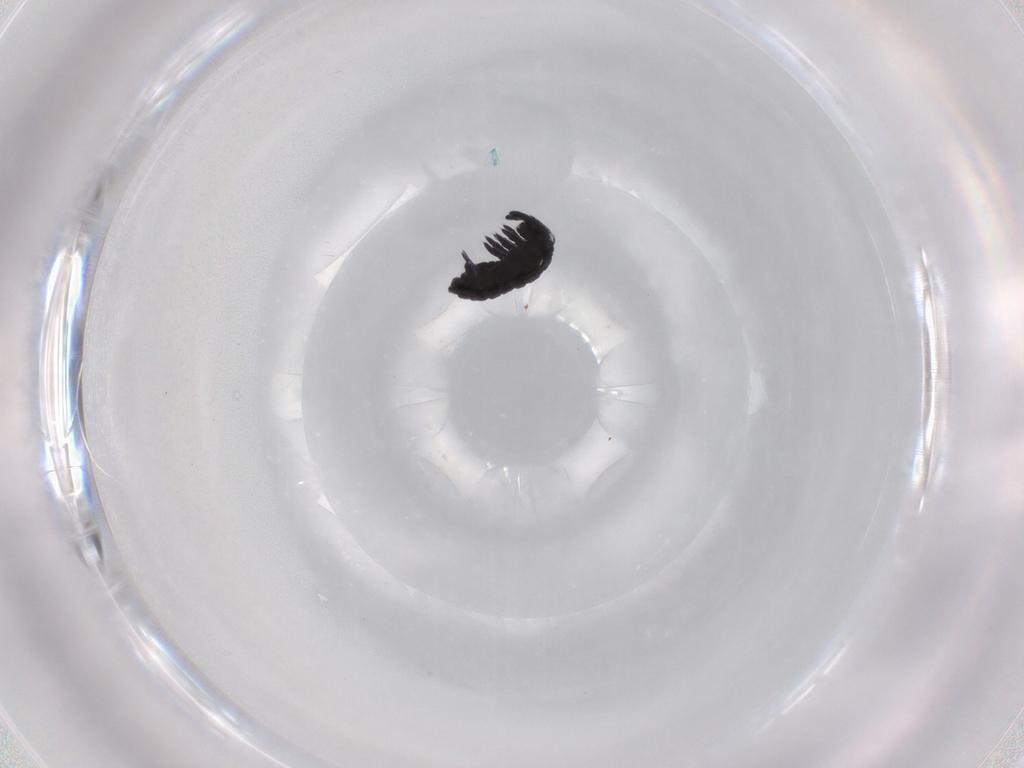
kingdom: Animalia
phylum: Arthropoda
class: Collembola
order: Poduromorpha
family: Hypogastruridae
